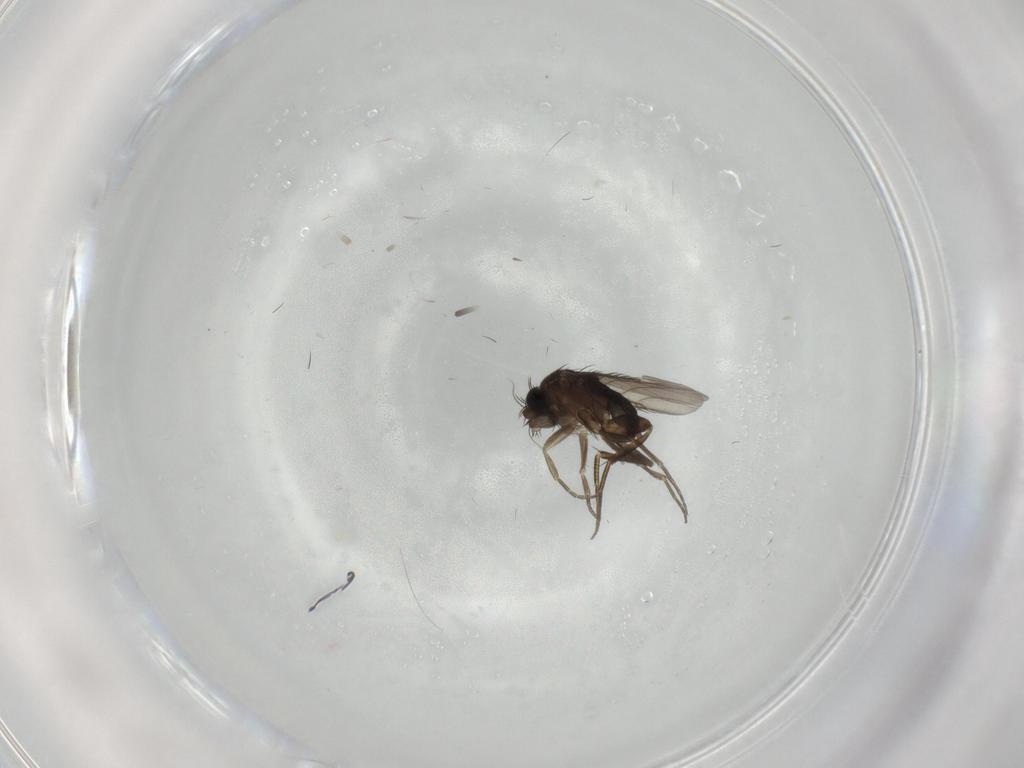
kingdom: Animalia
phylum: Arthropoda
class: Insecta
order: Diptera
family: Phoridae
